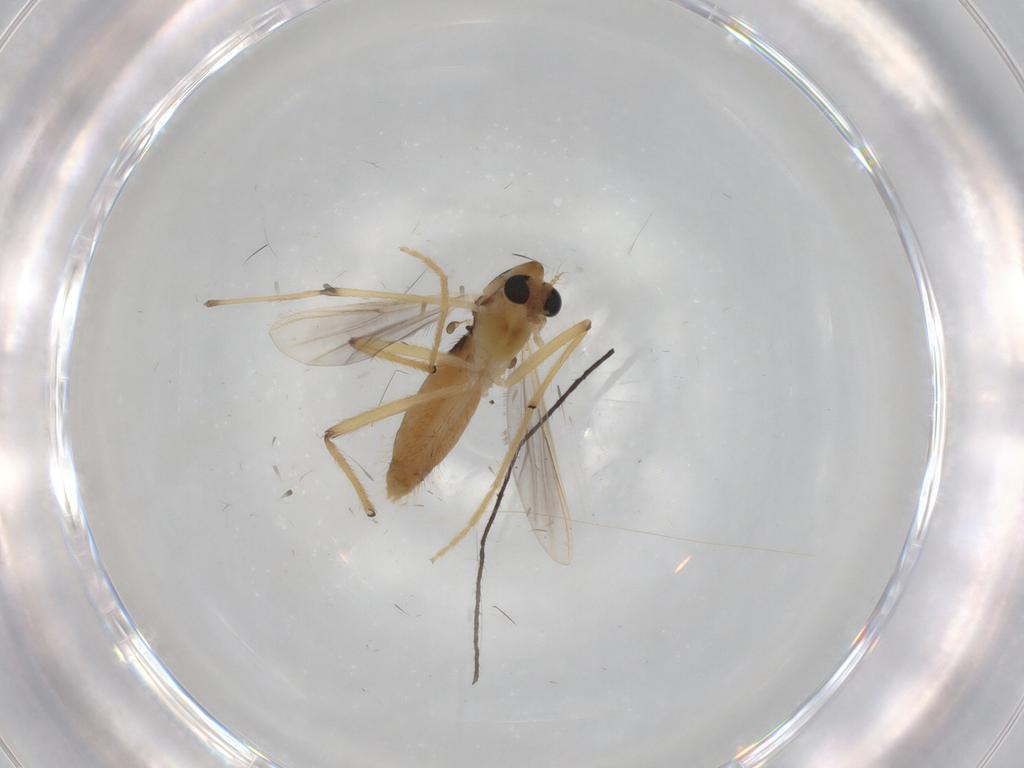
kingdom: Animalia
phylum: Arthropoda
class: Insecta
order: Diptera
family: Chironomidae
